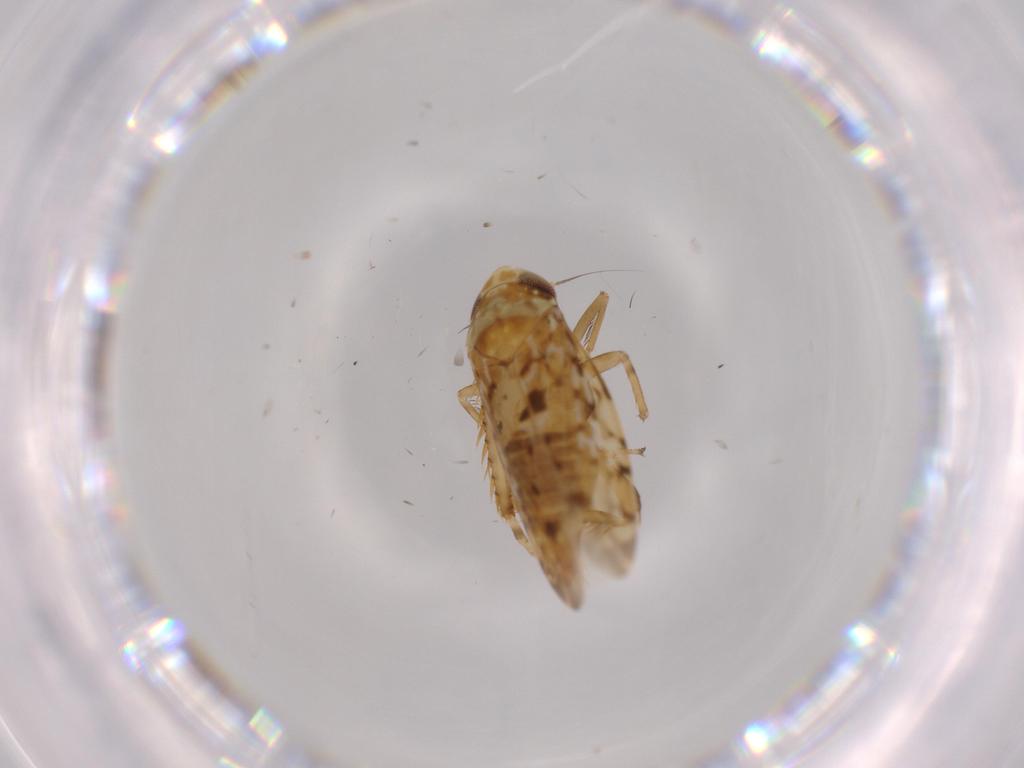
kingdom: Animalia
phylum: Arthropoda
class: Insecta
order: Hemiptera
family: Cicadellidae
